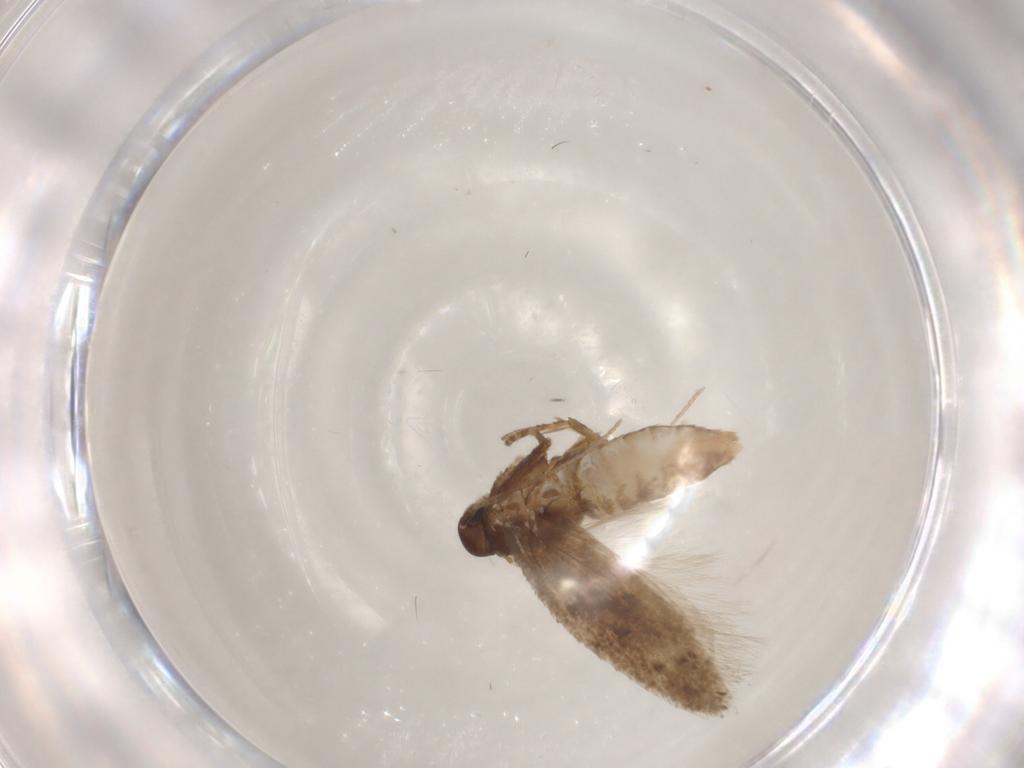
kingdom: Animalia
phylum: Arthropoda
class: Insecta
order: Lepidoptera
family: Gelechiidae
